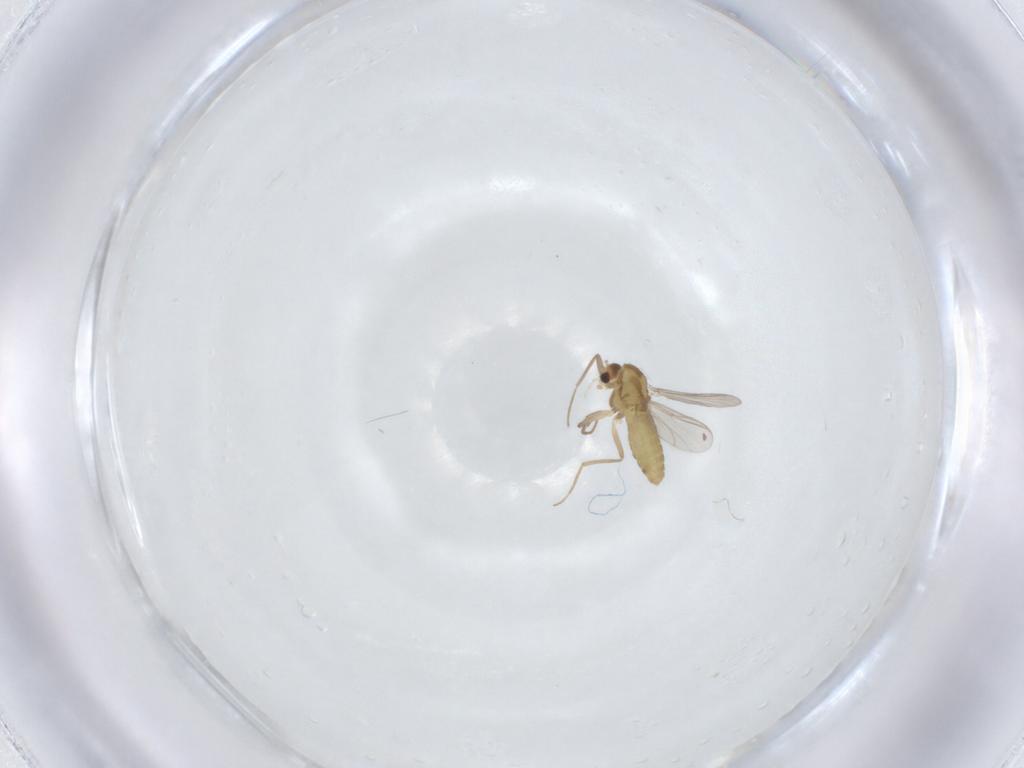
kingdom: Animalia
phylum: Arthropoda
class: Insecta
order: Diptera
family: Chironomidae
